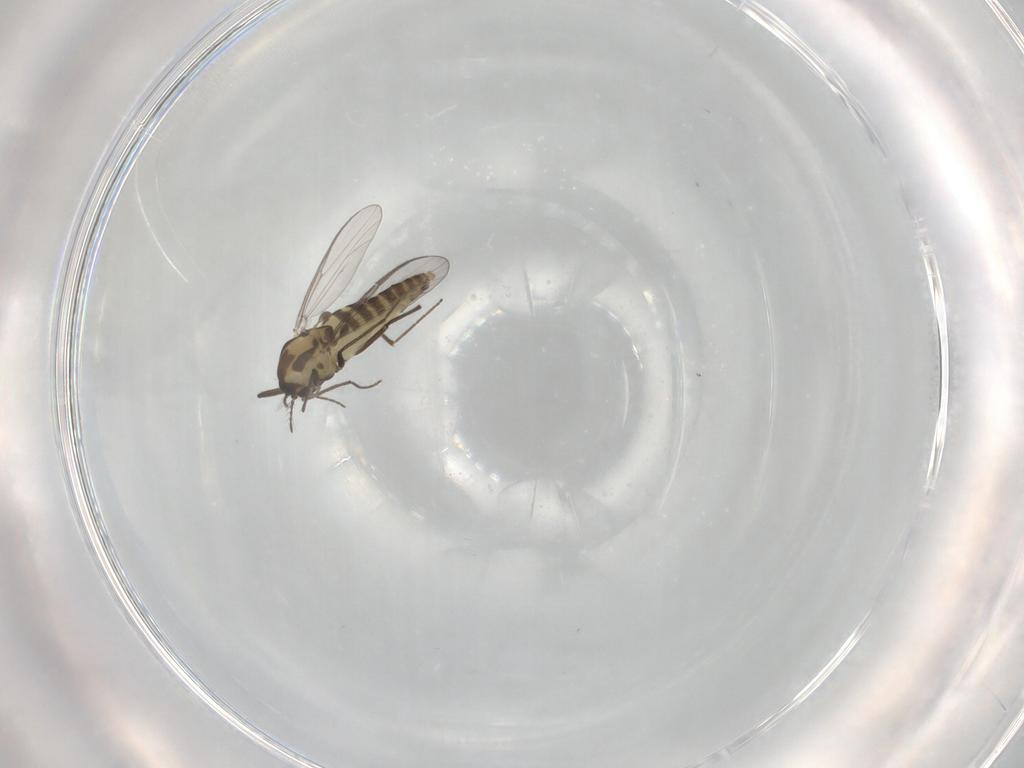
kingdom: Animalia
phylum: Arthropoda
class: Insecta
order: Diptera
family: Chironomidae
